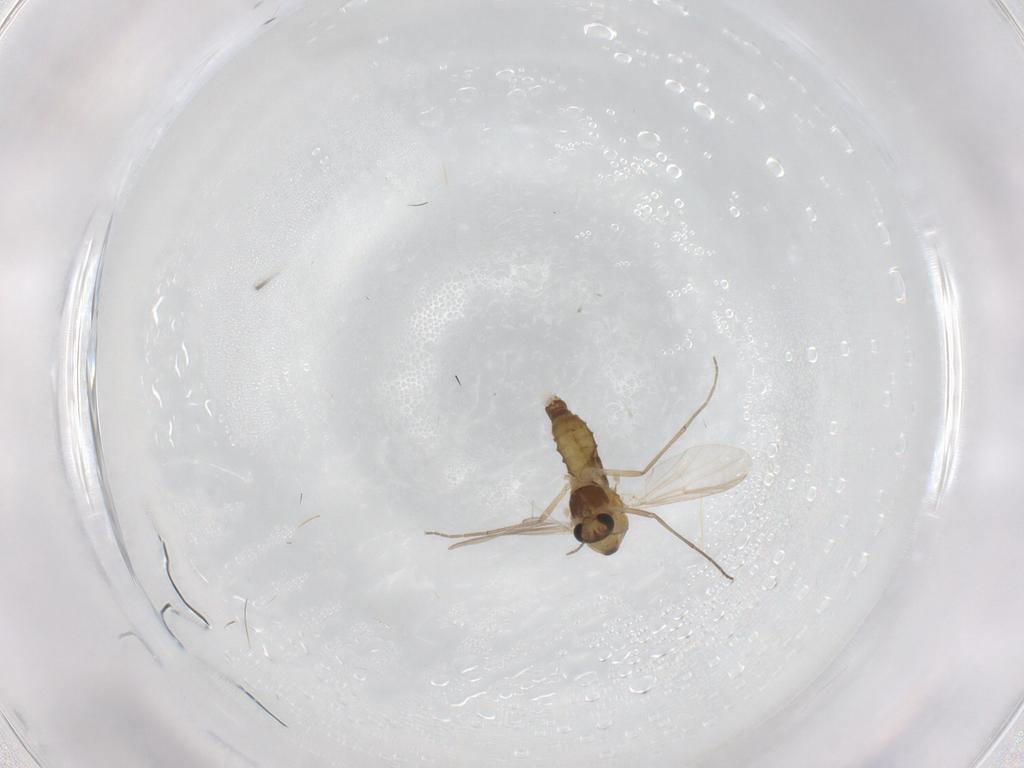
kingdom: Animalia
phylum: Arthropoda
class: Insecta
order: Diptera
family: Chironomidae
